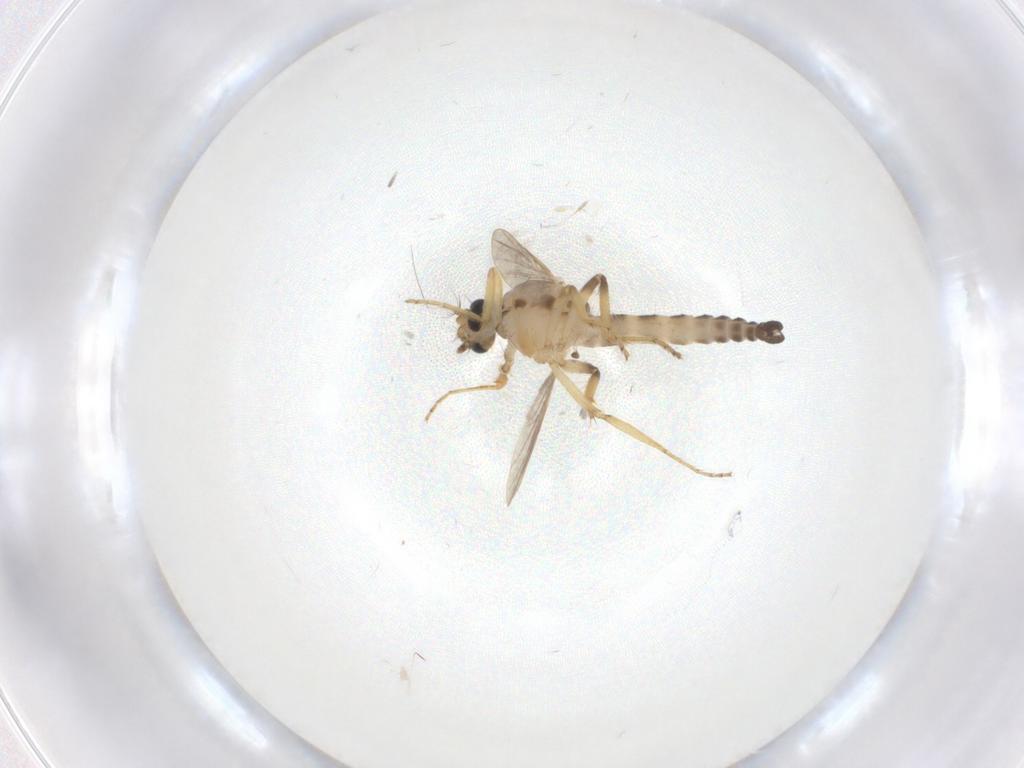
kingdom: Animalia
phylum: Arthropoda
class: Insecta
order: Diptera
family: Ceratopogonidae
